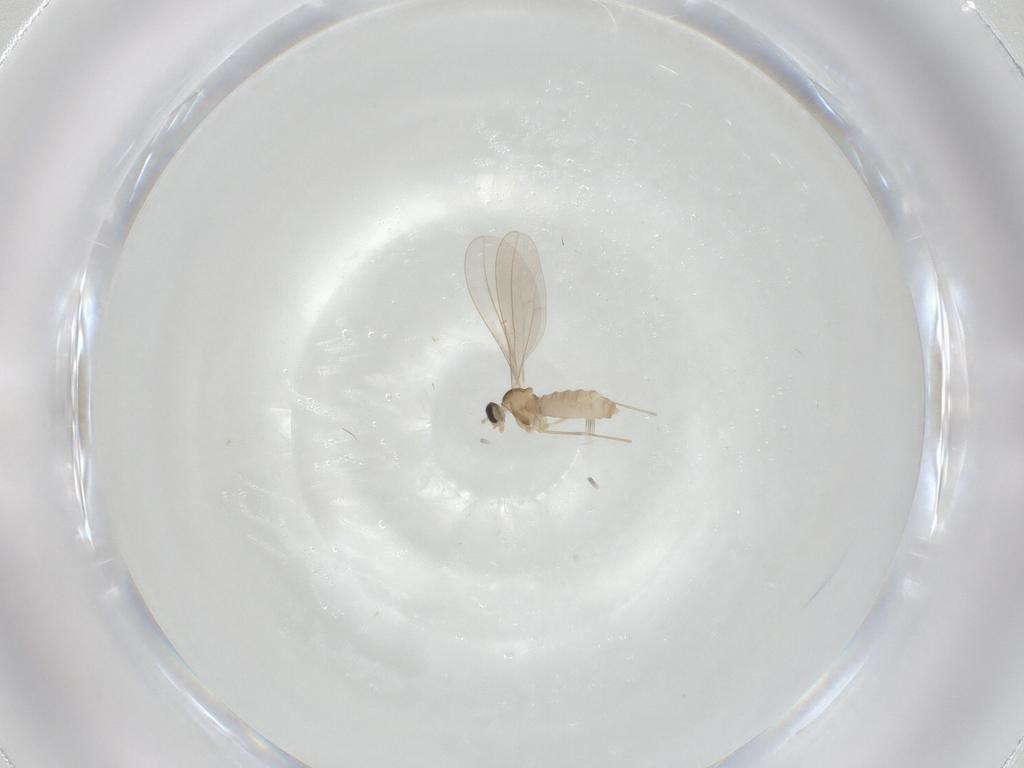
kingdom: Animalia
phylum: Arthropoda
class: Insecta
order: Diptera
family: Cecidomyiidae
